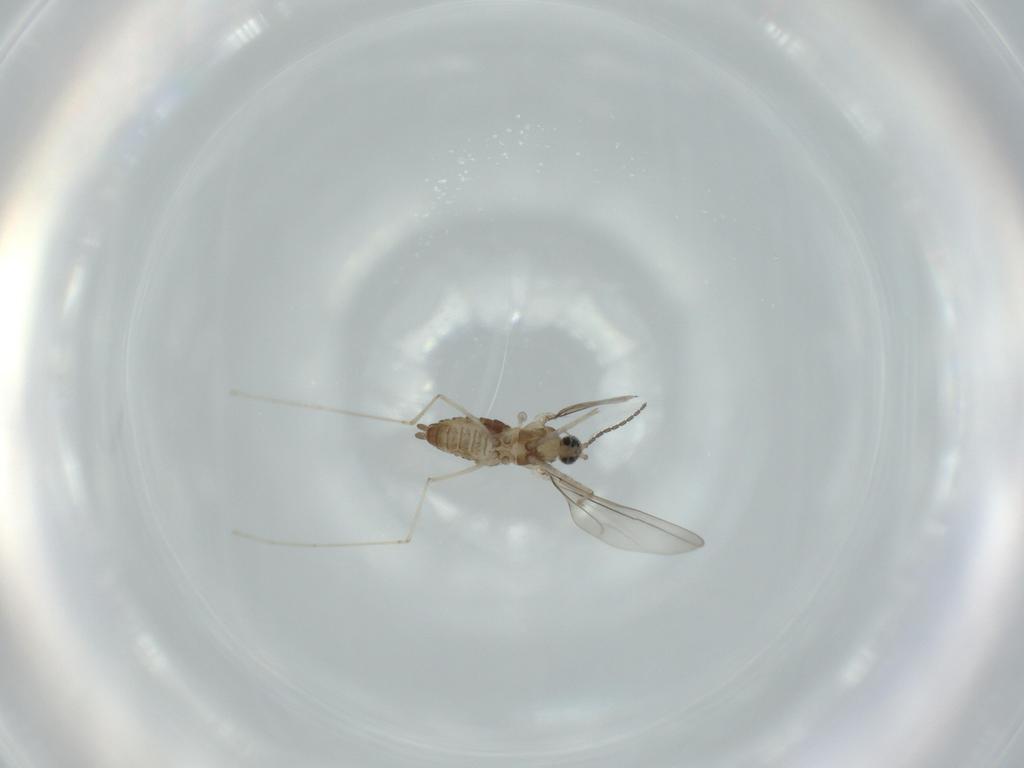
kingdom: Animalia
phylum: Arthropoda
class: Insecta
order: Diptera
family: Cecidomyiidae
